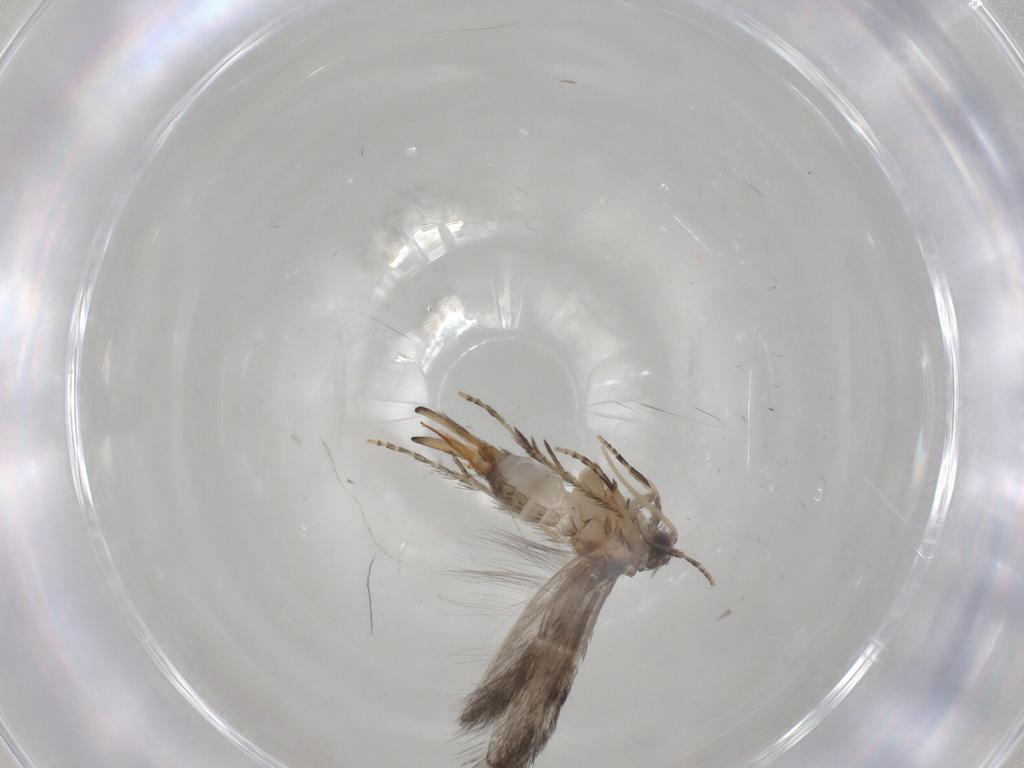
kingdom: Animalia
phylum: Arthropoda
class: Insecta
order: Trichoptera
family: Hydroptilidae
